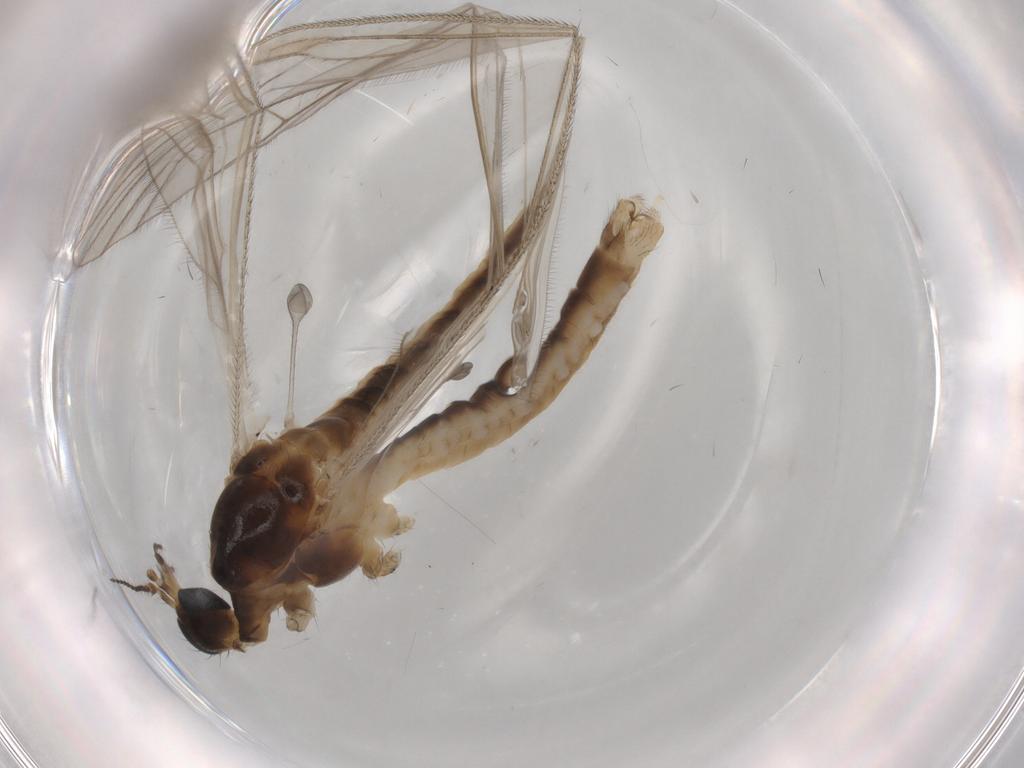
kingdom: Animalia
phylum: Arthropoda
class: Insecta
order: Diptera
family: Limoniidae
